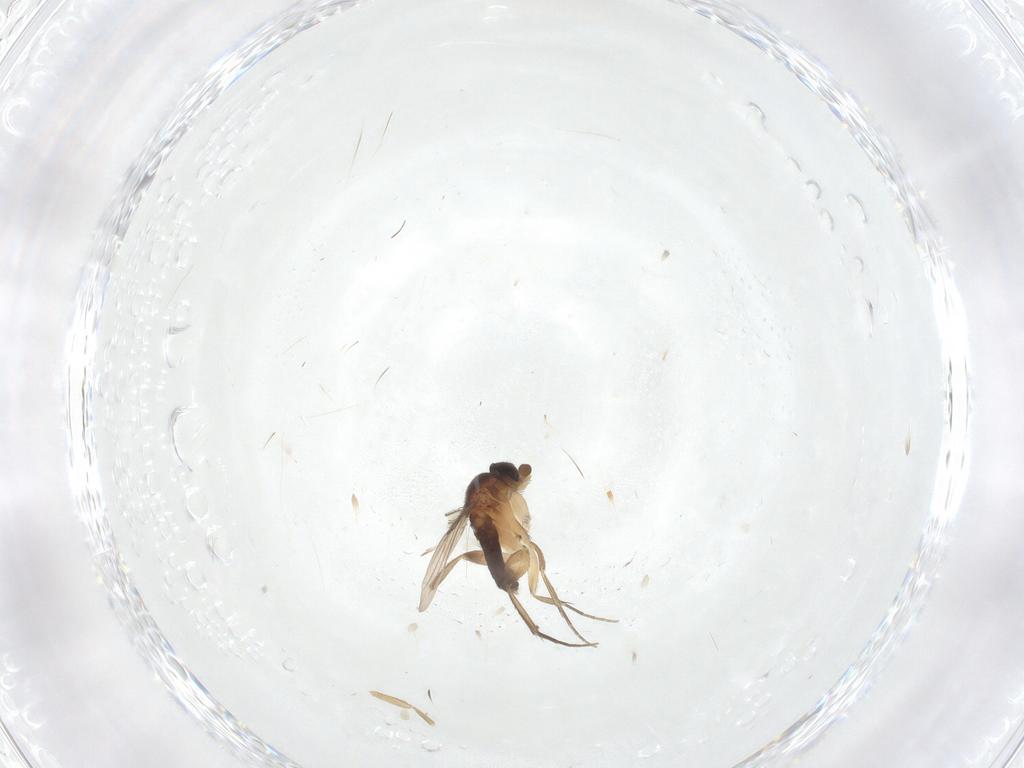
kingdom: Animalia
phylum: Arthropoda
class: Insecta
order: Diptera
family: Phoridae
